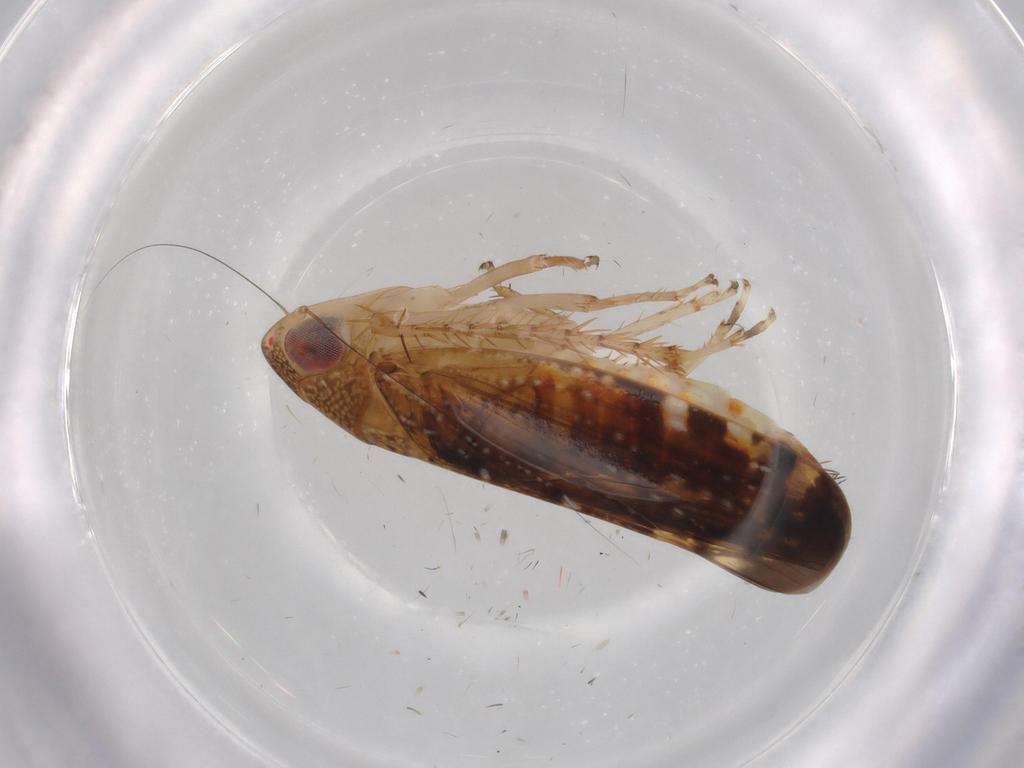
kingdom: Animalia
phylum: Arthropoda
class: Insecta
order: Hemiptera
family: Cicadellidae
